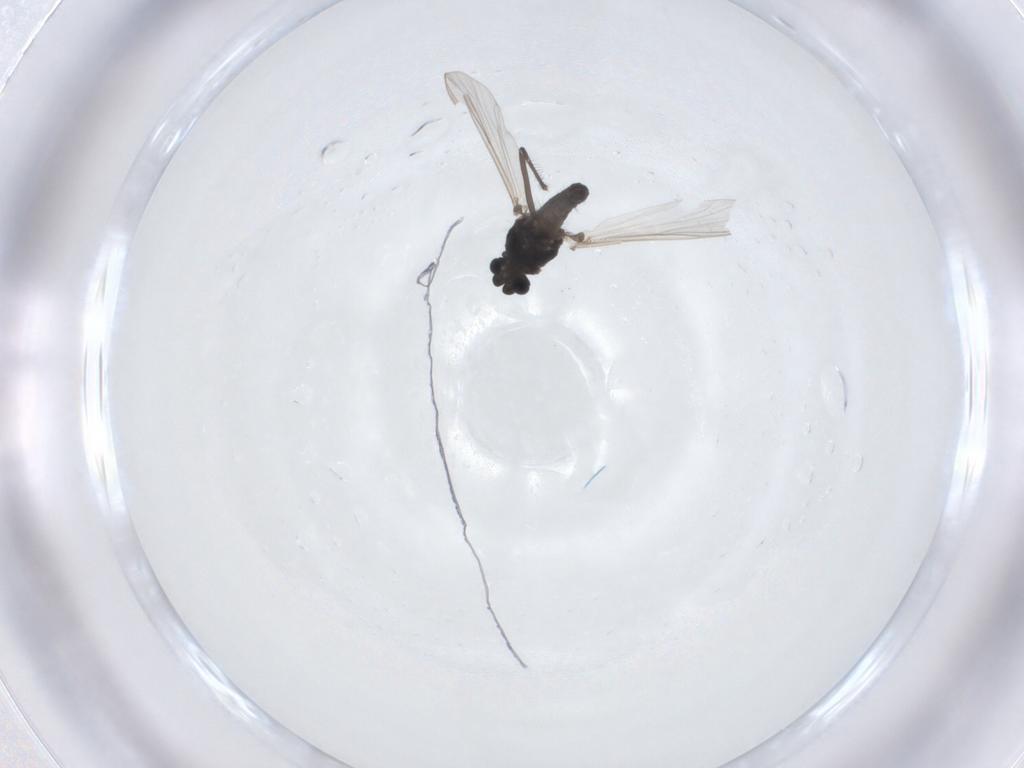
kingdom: Animalia
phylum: Arthropoda
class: Insecta
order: Diptera
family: Chironomidae
